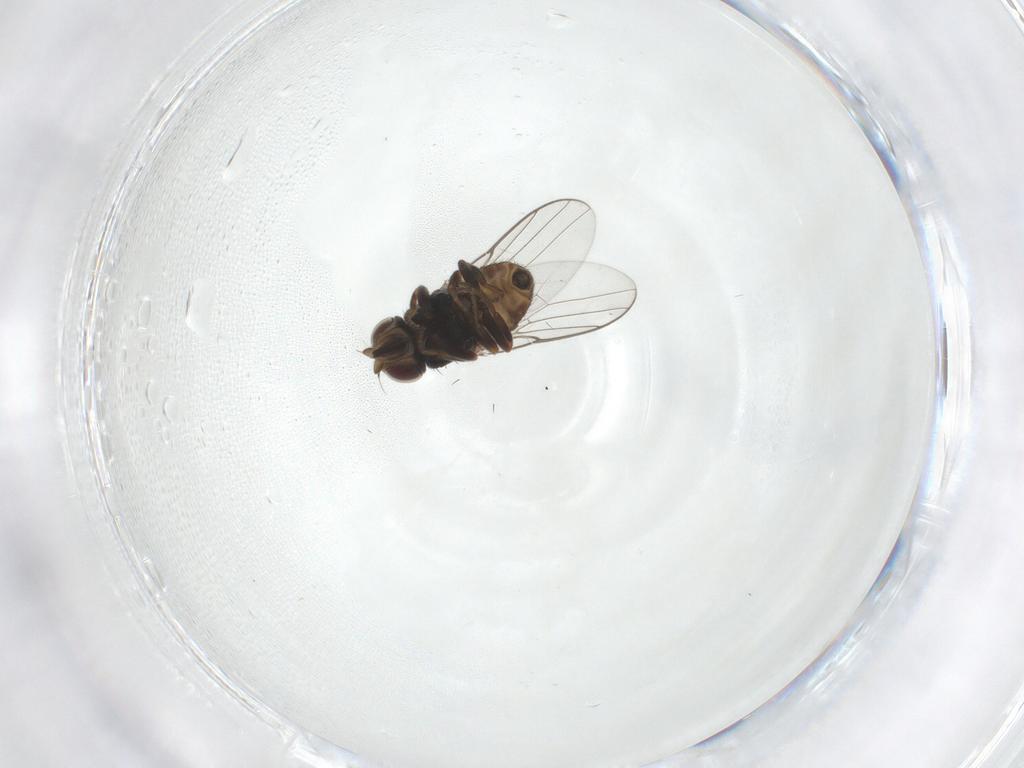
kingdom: Animalia
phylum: Arthropoda
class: Insecta
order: Diptera
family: Chloropidae
